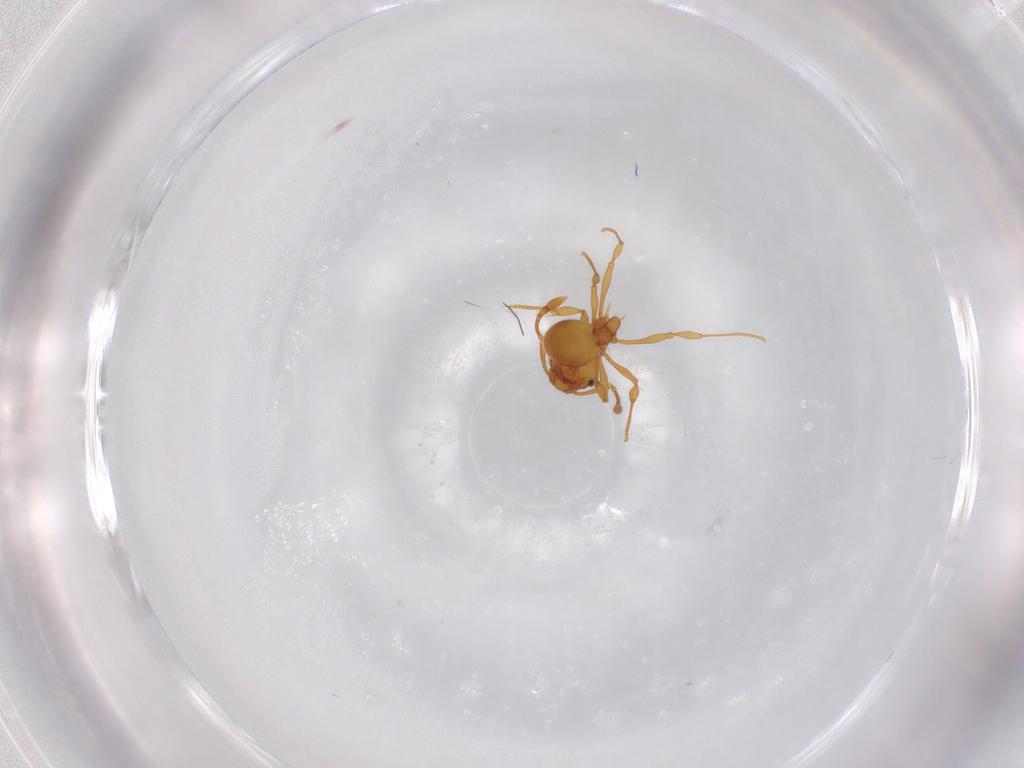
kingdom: Animalia
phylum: Arthropoda
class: Insecta
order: Hymenoptera
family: Formicidae
